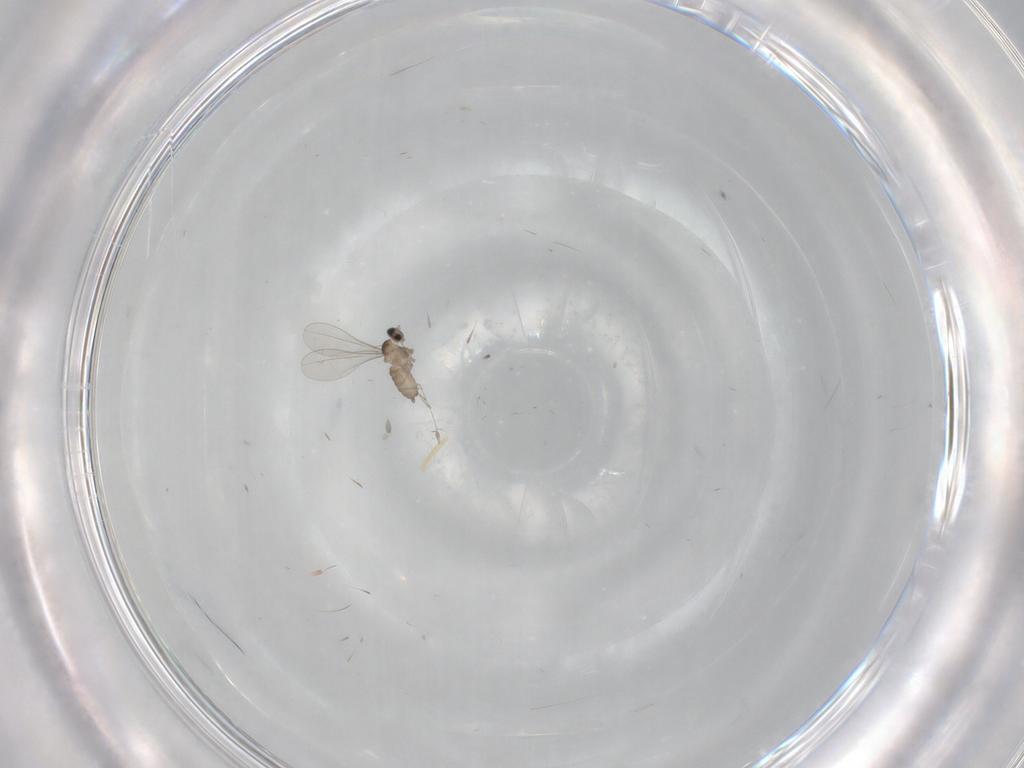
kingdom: Animalia
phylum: Arthropoda
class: Insecta
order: Diptera
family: Cecidomyiidae
